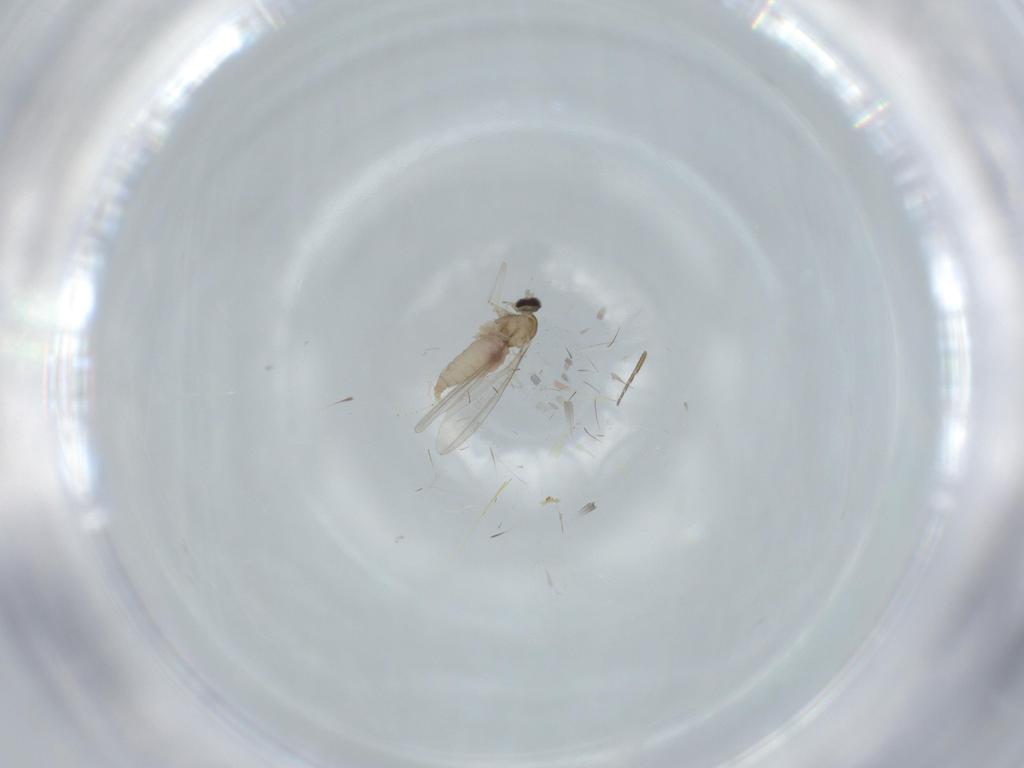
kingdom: Animalia
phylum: Arthropoda
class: Insecta
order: Diptera
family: Cecidomyiidae
